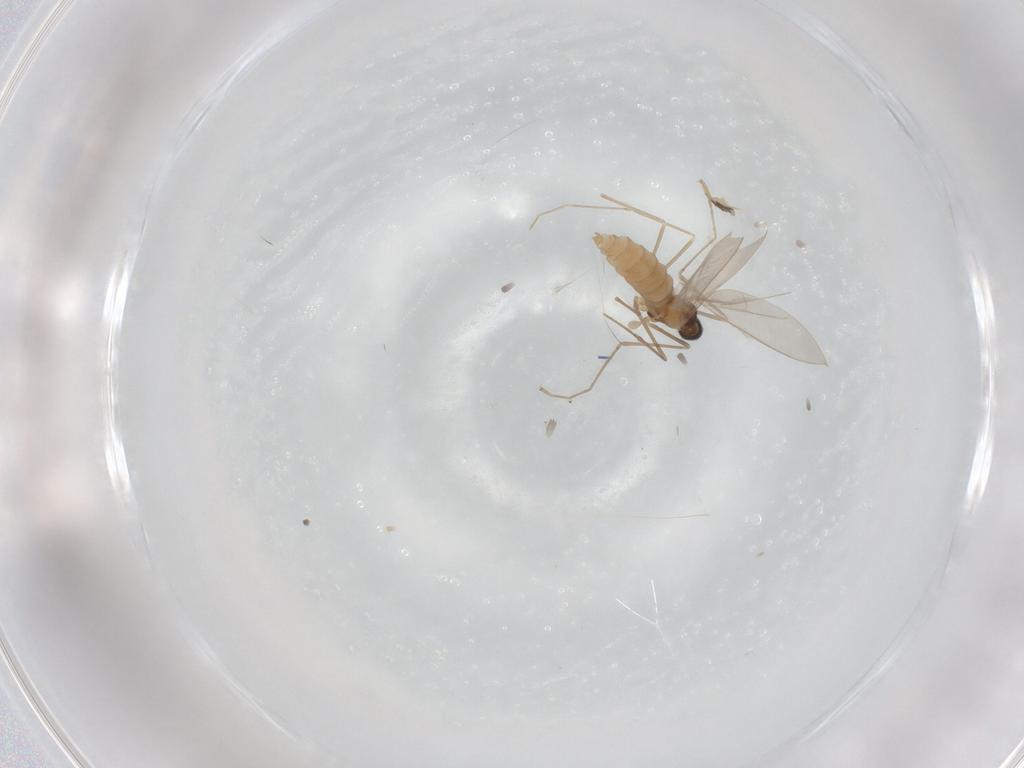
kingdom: Animalia
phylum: Arthropoda
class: Insecta
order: Diptera
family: Cecidomyiidae
